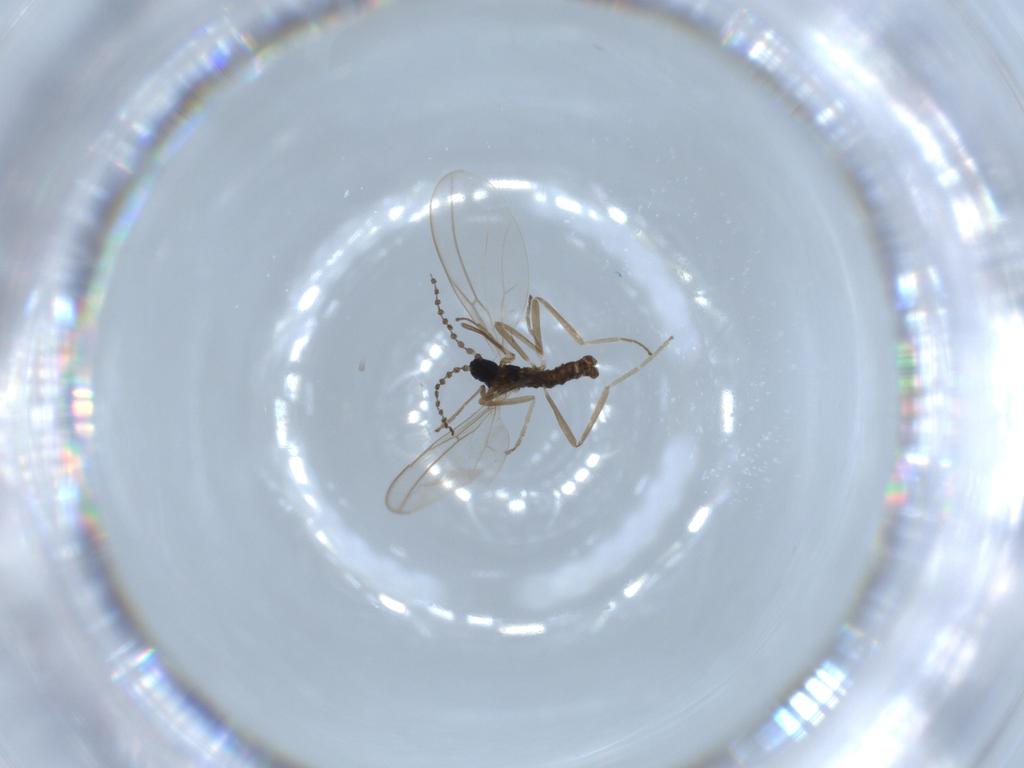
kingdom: Animalia
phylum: Arthropoda
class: Insecta
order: Diptera
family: Cecidomyiidae
